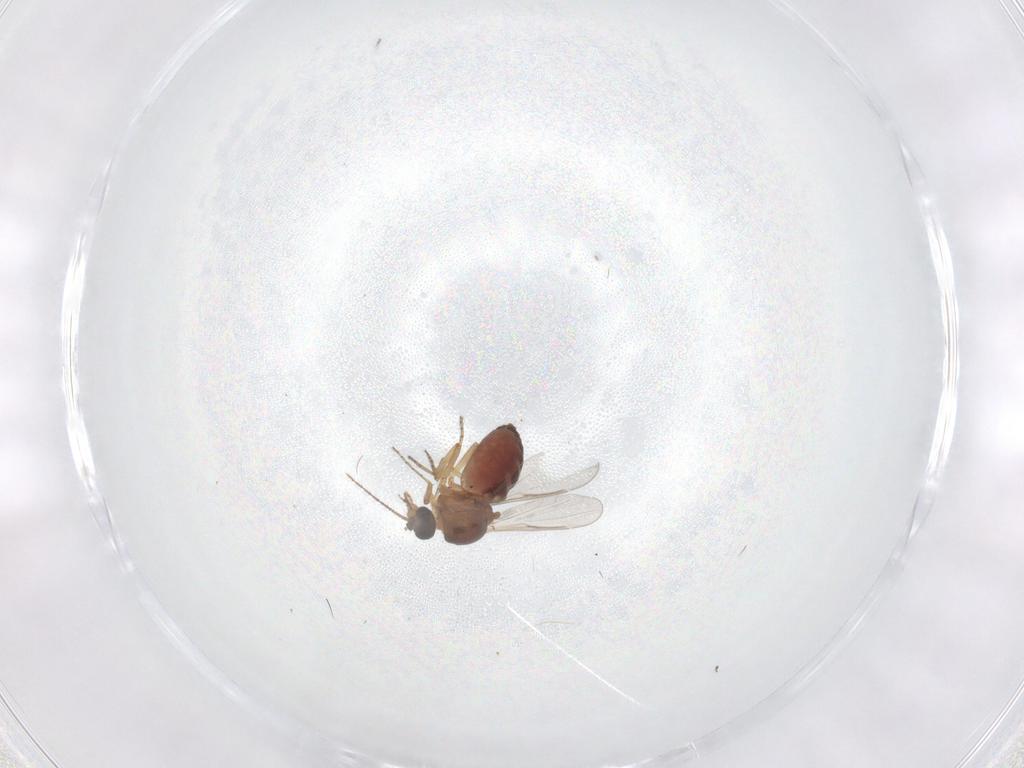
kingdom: Animalia
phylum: Arthropoda
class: Insecta
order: Diptera
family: Ceratopogonidae
